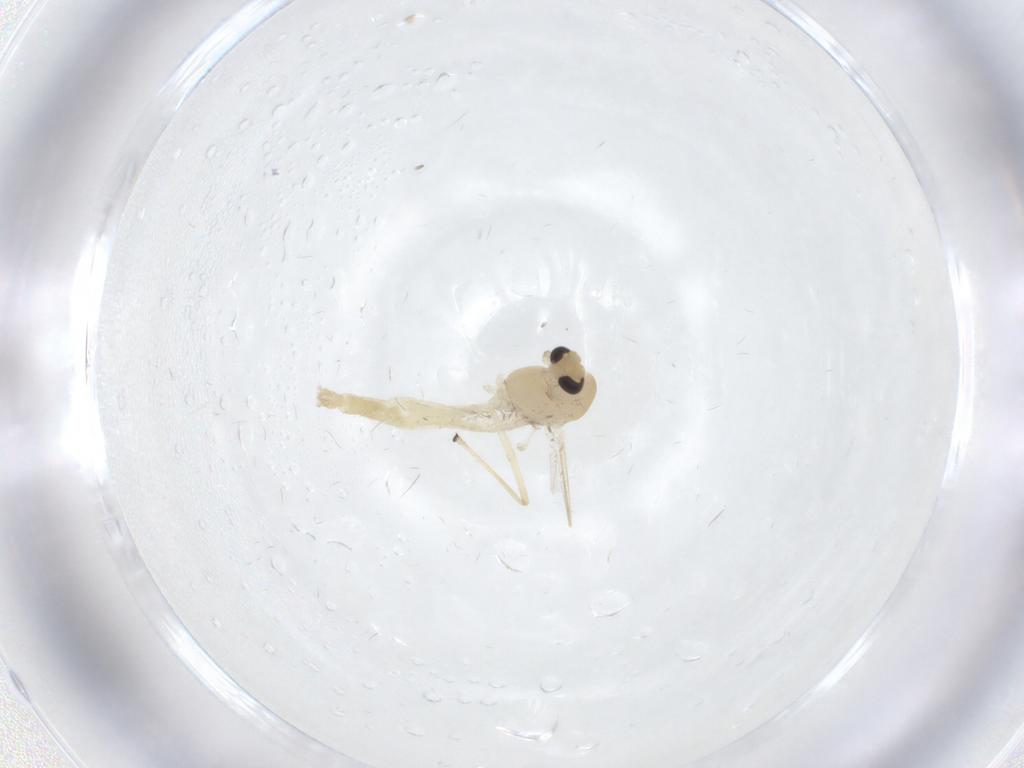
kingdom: Animalia
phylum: Arthropoda
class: Insecta
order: Diptera
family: Chironomidae
